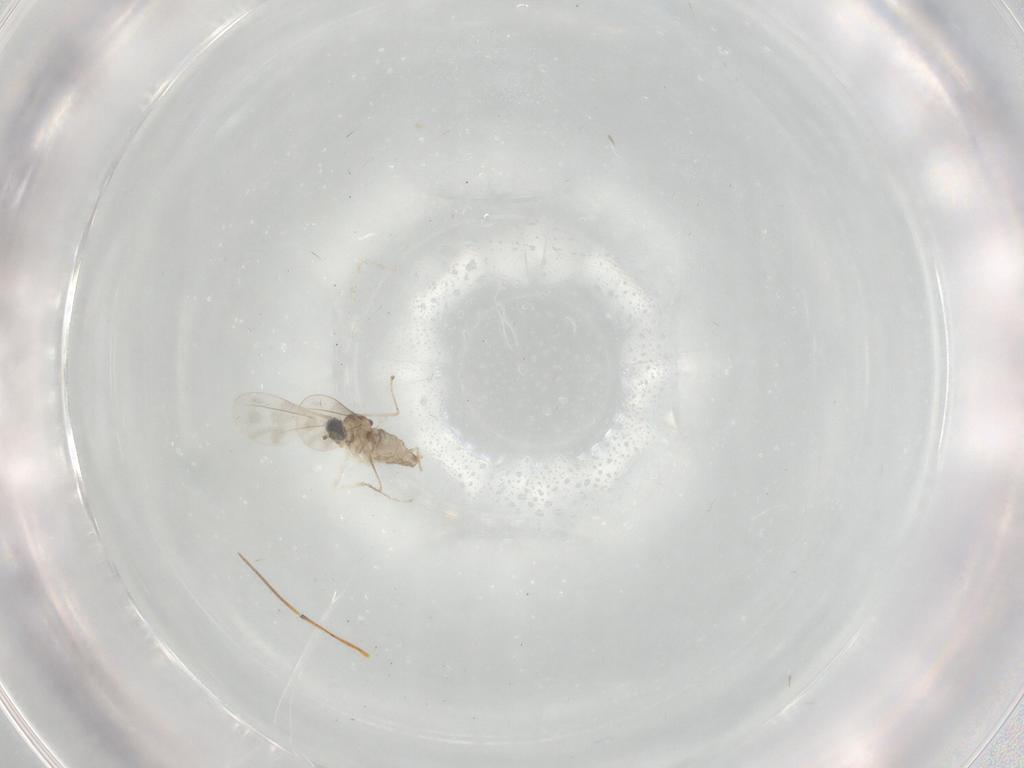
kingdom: Animalia
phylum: Arthropoda
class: Insecta
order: Diptera
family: Cecidomyiidae
